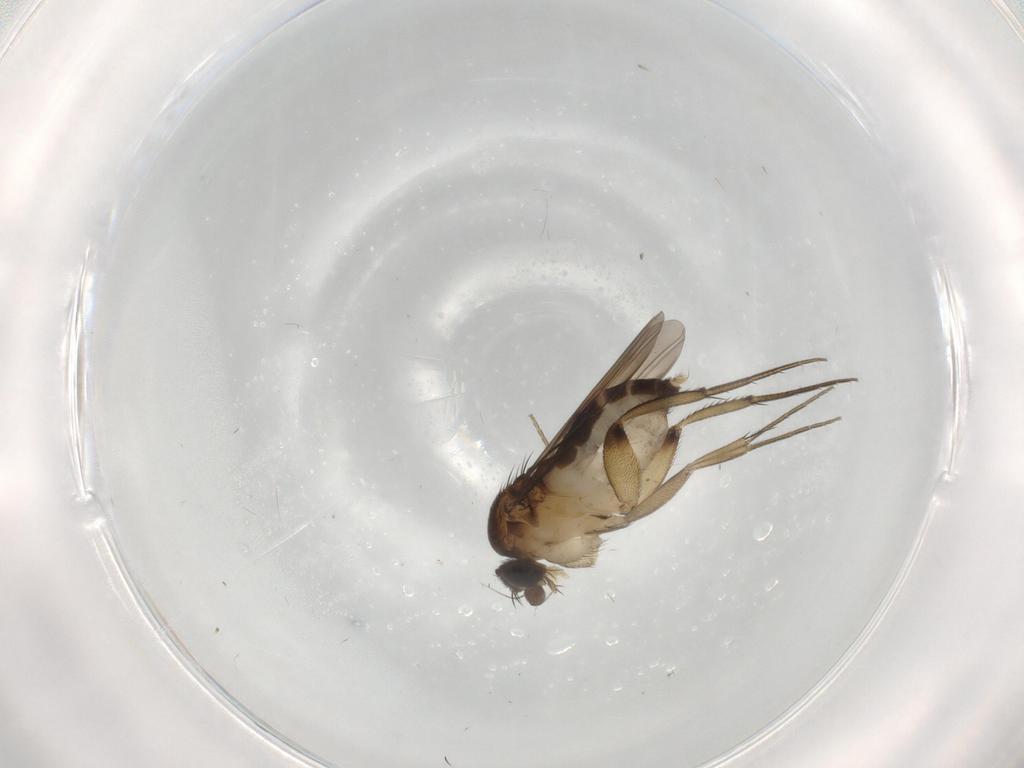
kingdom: Animalia
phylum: Arthropoda
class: Insecta
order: Diptera
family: Phoridae
